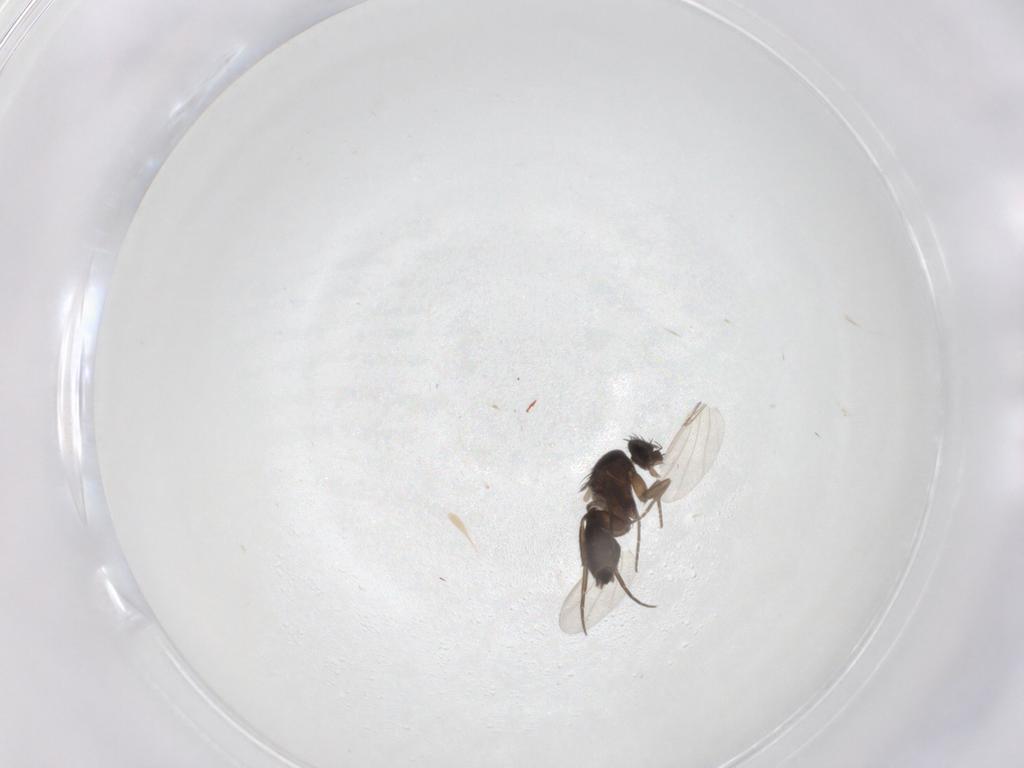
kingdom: Animalia
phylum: Arthropoda
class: Insecta
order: Diptera
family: Phoridae
